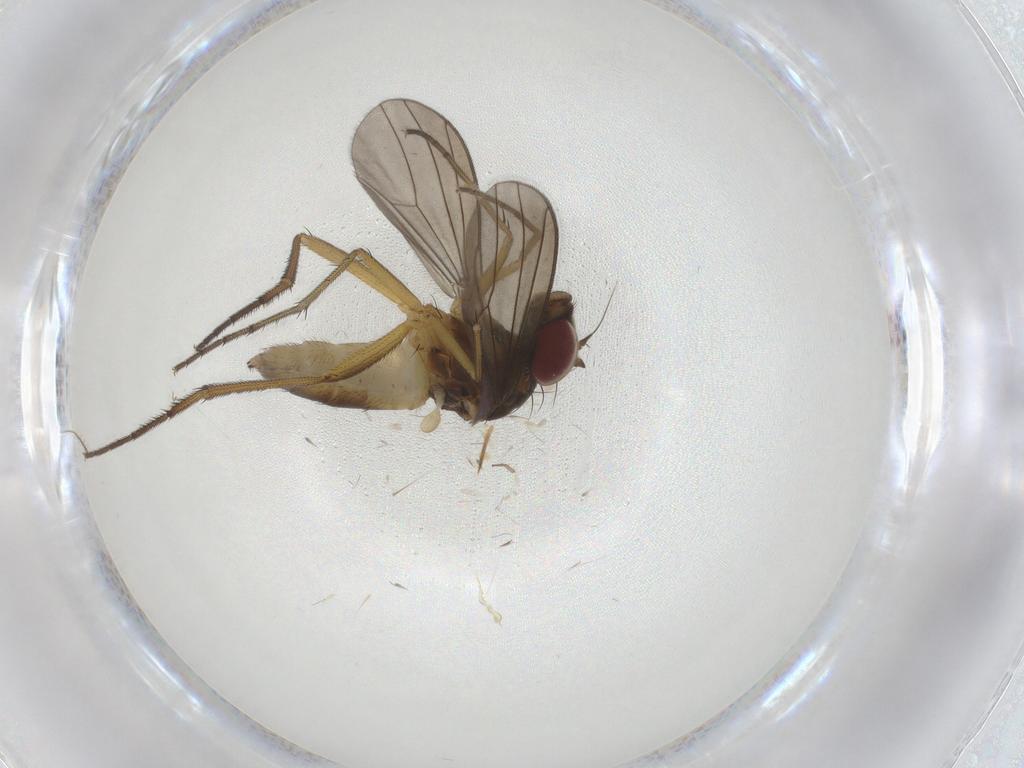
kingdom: Animalia
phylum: Arthropoda
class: Insecta
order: Diptera
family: Dolichopodidae
